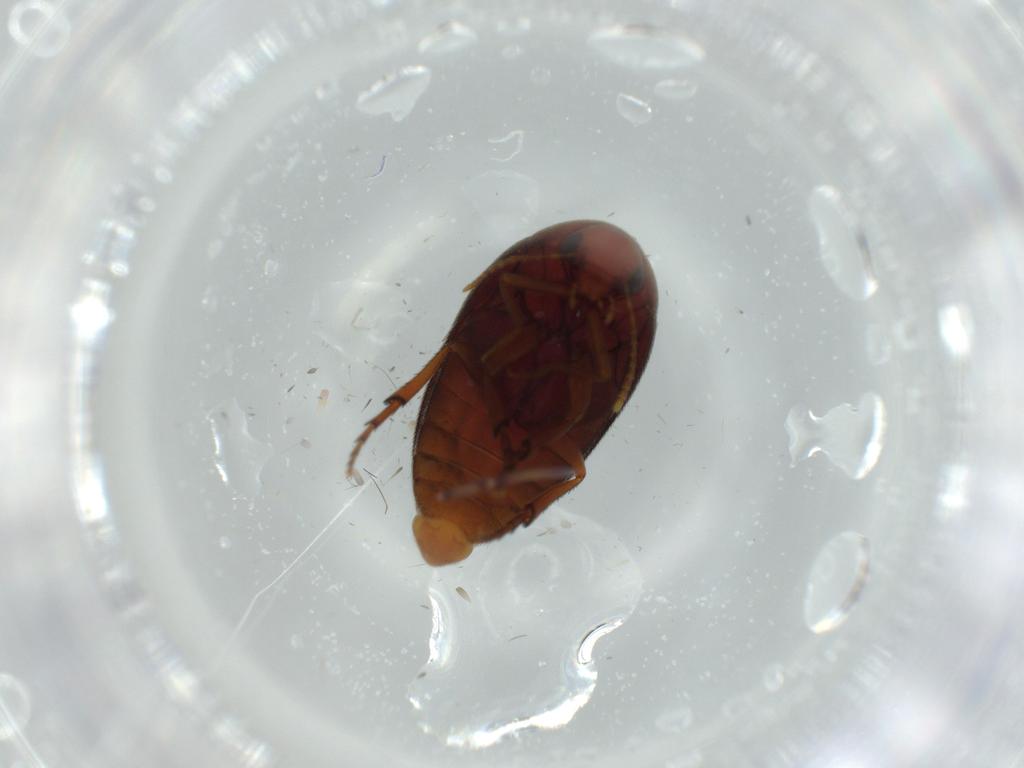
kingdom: Animalia
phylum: Arthropoda
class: Insecta
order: Coleoptera
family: Eucinetidae
